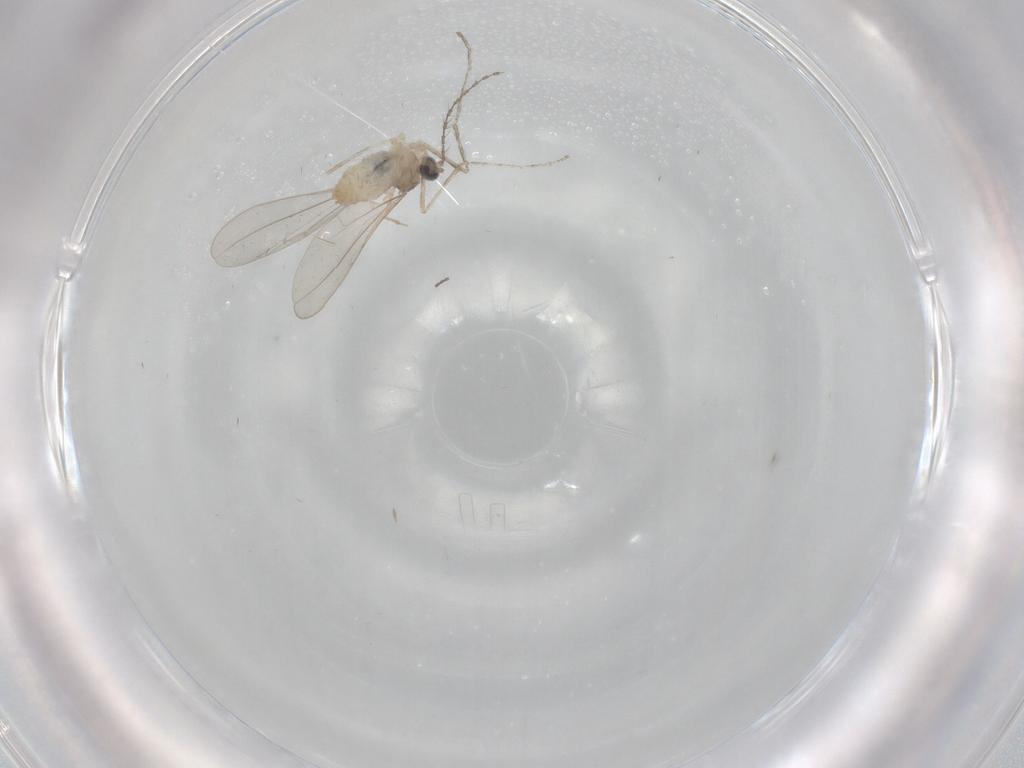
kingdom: Animalia
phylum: Arthropoda
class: Insecta
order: Diptera
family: Cecidomyiidae
